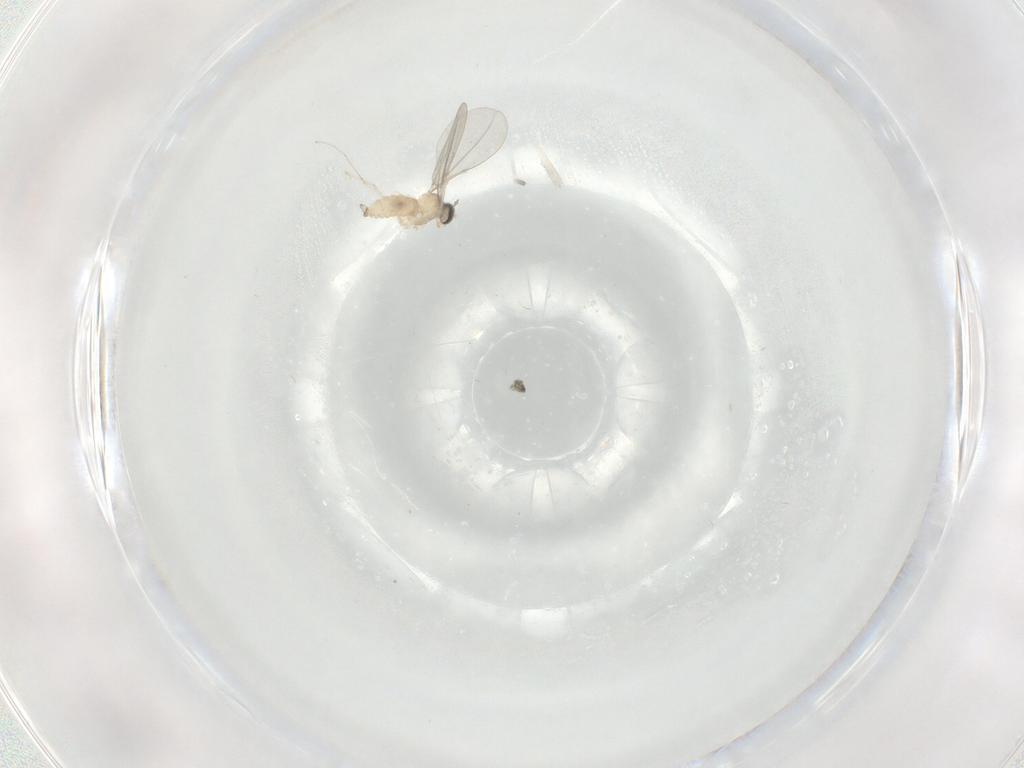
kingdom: Animalia
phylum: Arthropoda
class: Insecta
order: Diptera
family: Cecidomyiidae
